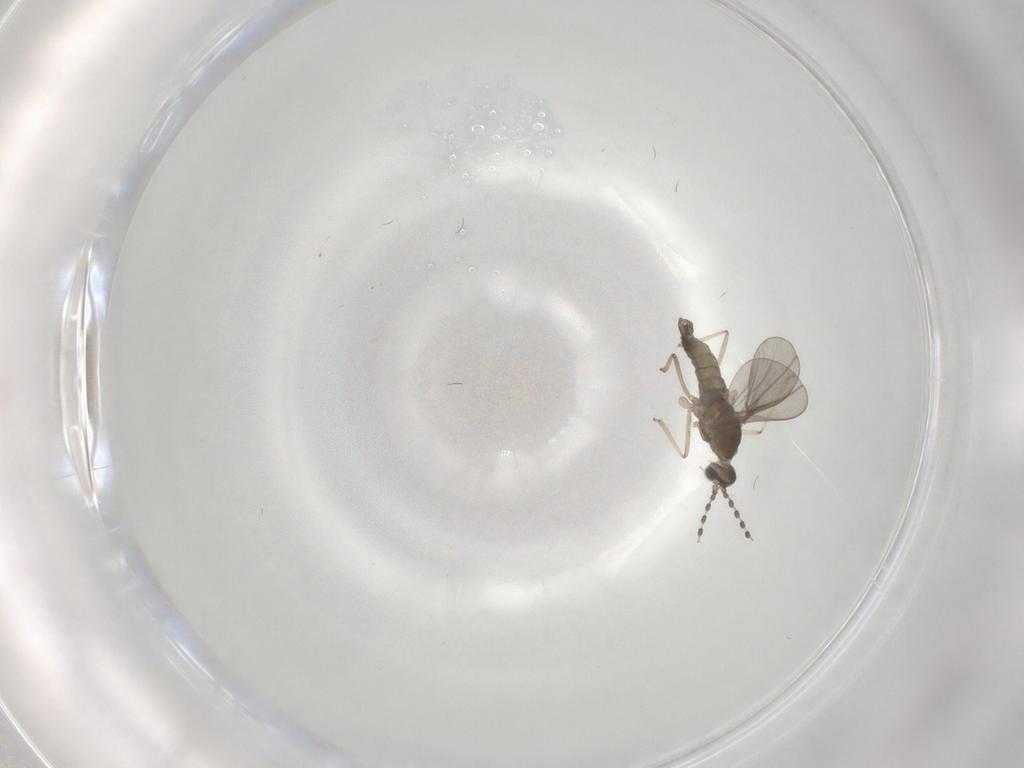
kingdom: Animalia
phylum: Arthropoda
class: Insecta
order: Diptera
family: Cecidomyiidae
